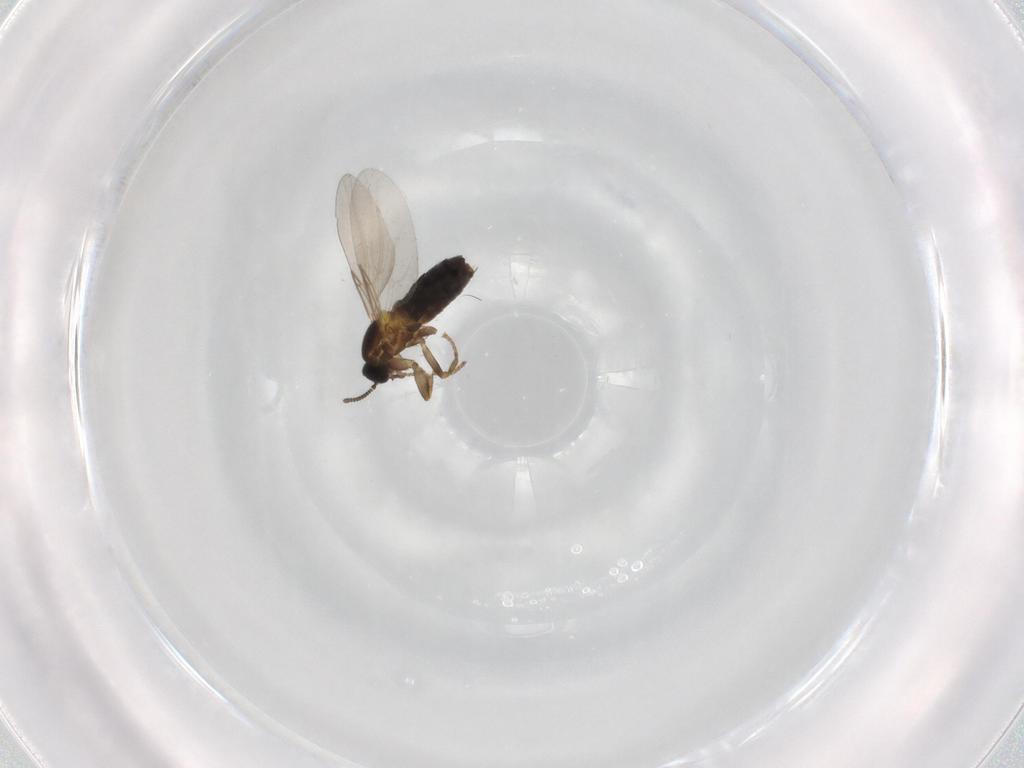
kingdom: Animalia
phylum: Arthropoda
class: Insecta
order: Diptera
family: Scatopsidae
